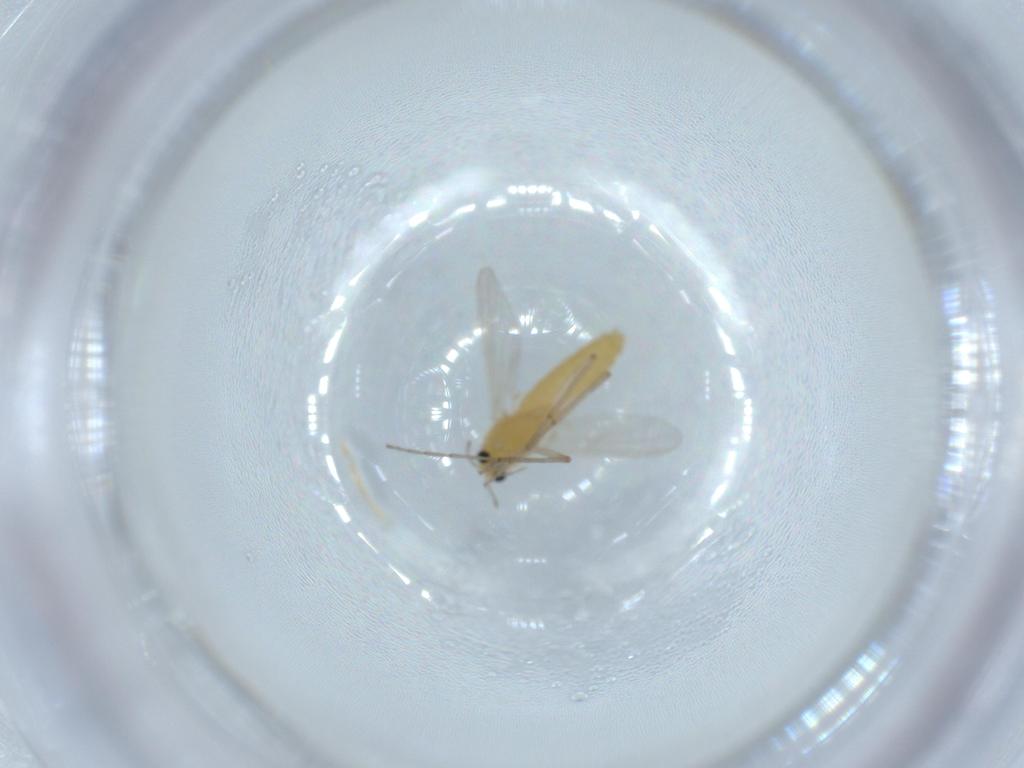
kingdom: Animalia
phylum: Arthropoda
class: Insecta
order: Diptera
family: Chironomidae
